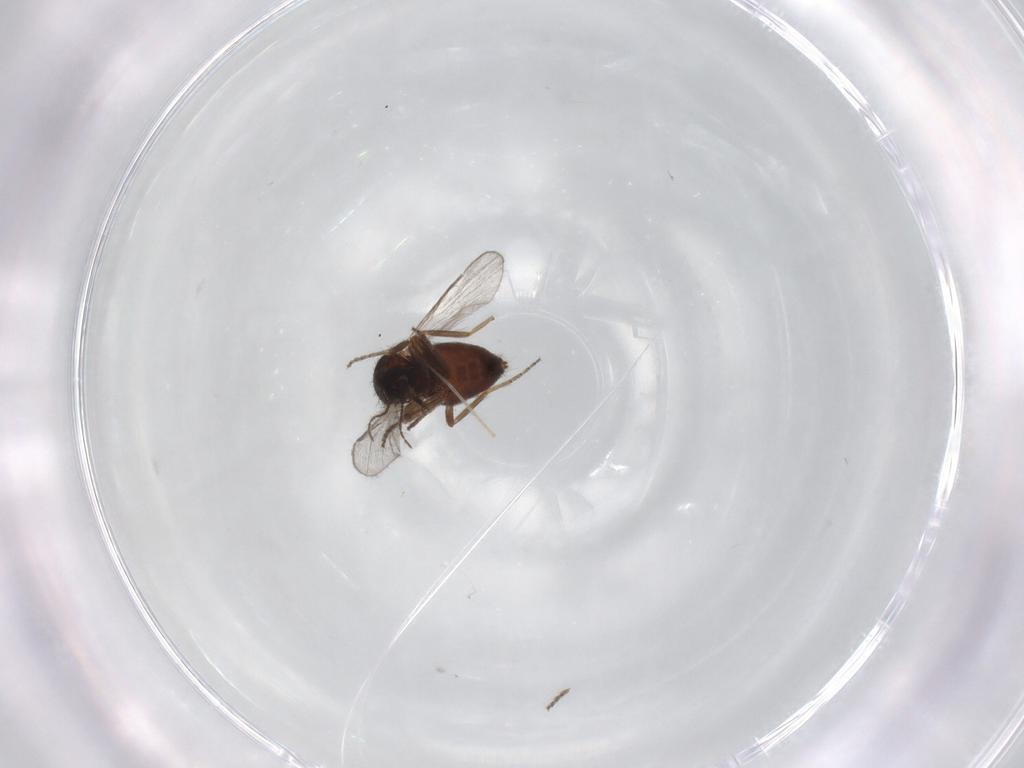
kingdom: Animalia
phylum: Arthropoda
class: Insecta
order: Diptera
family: Ceratopogonidae
